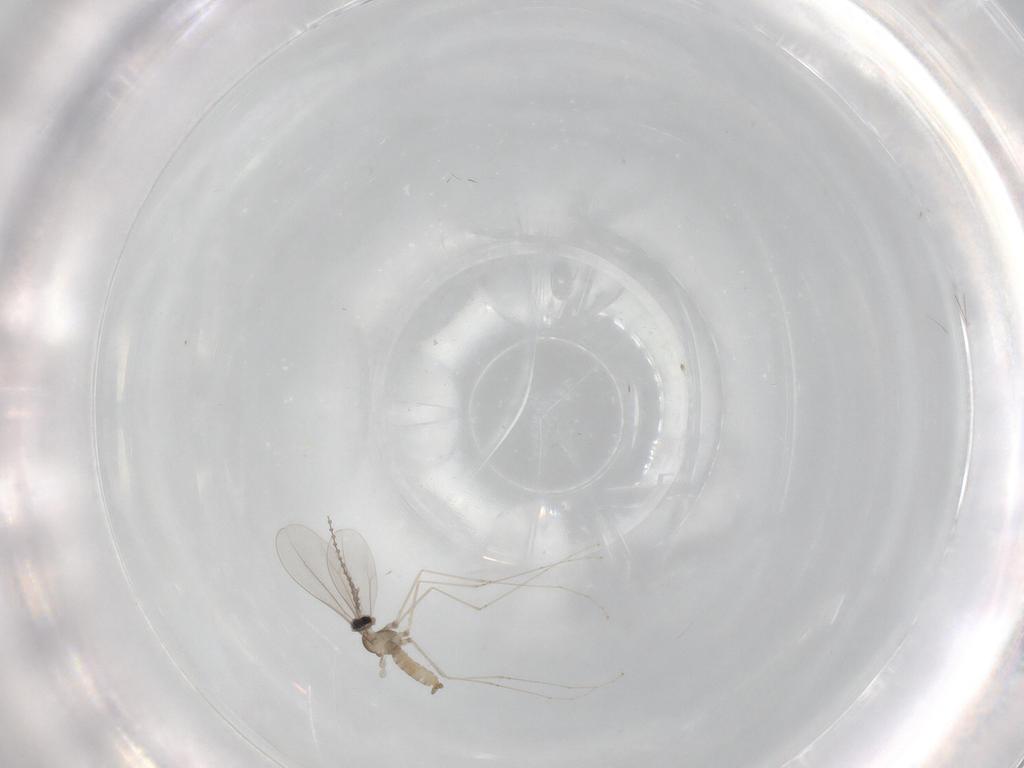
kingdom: Animalia
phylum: Arthropoda
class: Insecta
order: Diptera
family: Cecidomyiidae
